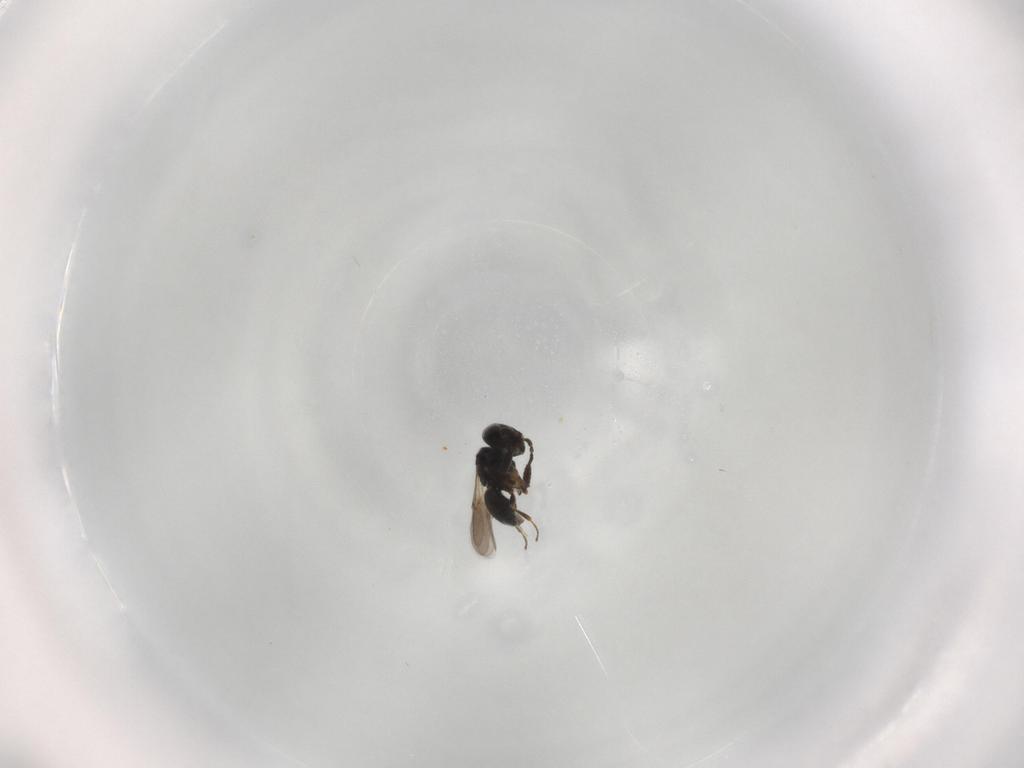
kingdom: Animalia
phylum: Arthropoda
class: Insecta
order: Hymenoptera
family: Scelionidae
